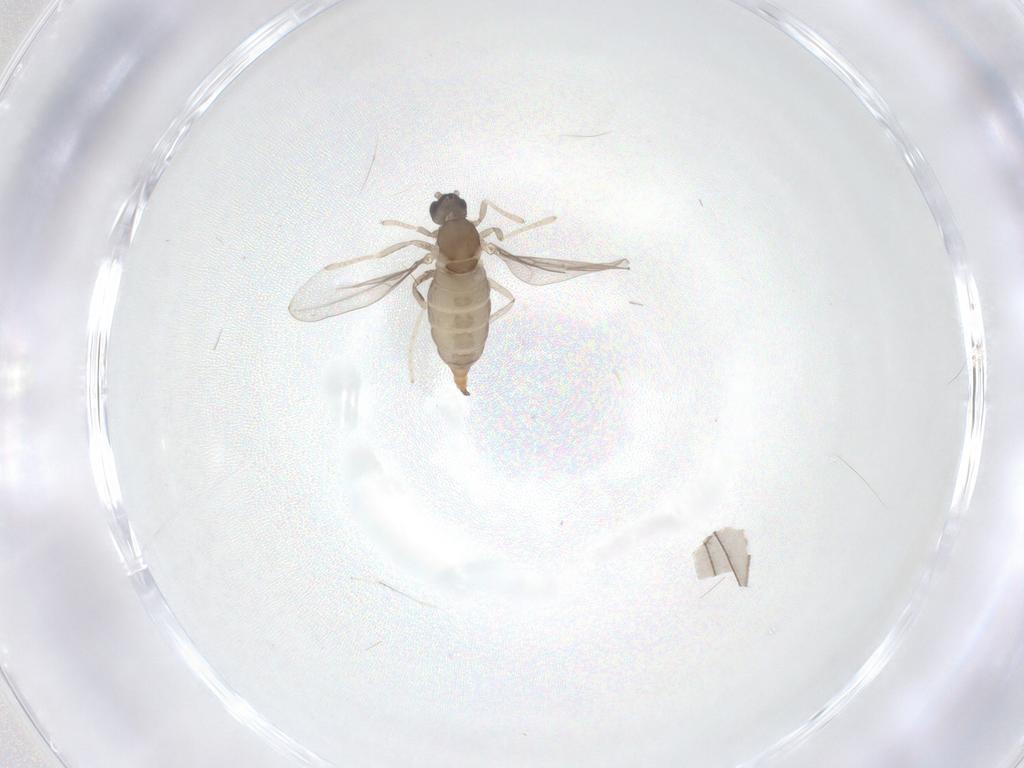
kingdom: Animalia
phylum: Arthropoda
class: Insecta
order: Diptera
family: Cecidomyiidae
